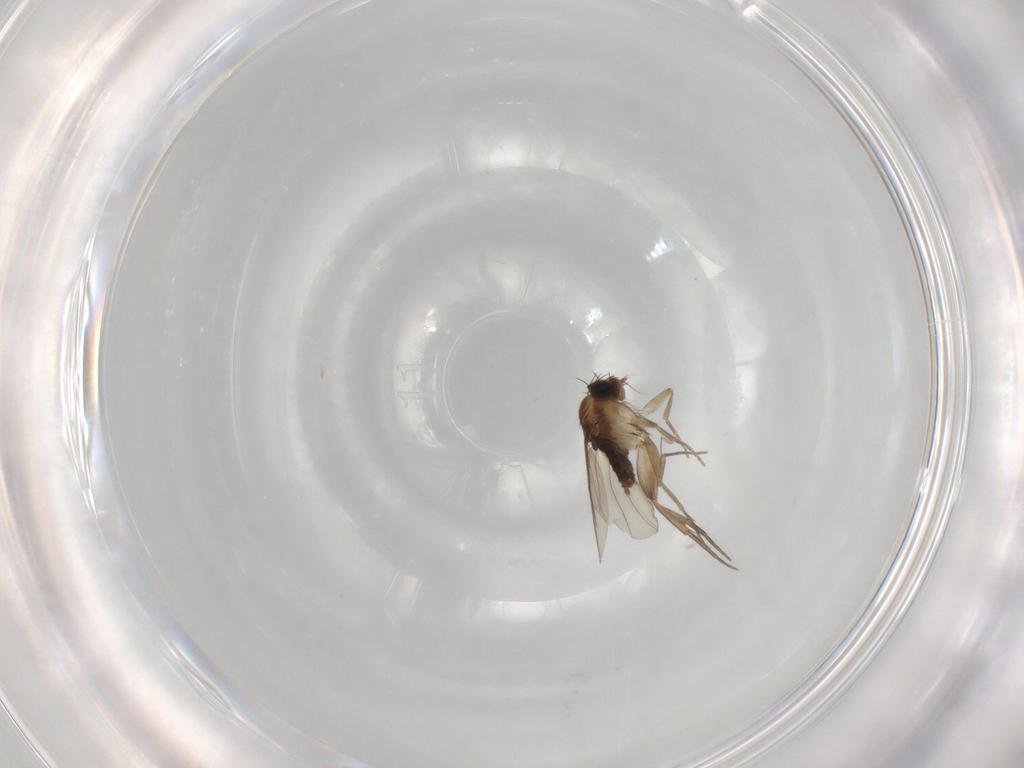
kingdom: Animalia
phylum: Arthropoda
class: Insecta
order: Diptera
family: Phoridae
